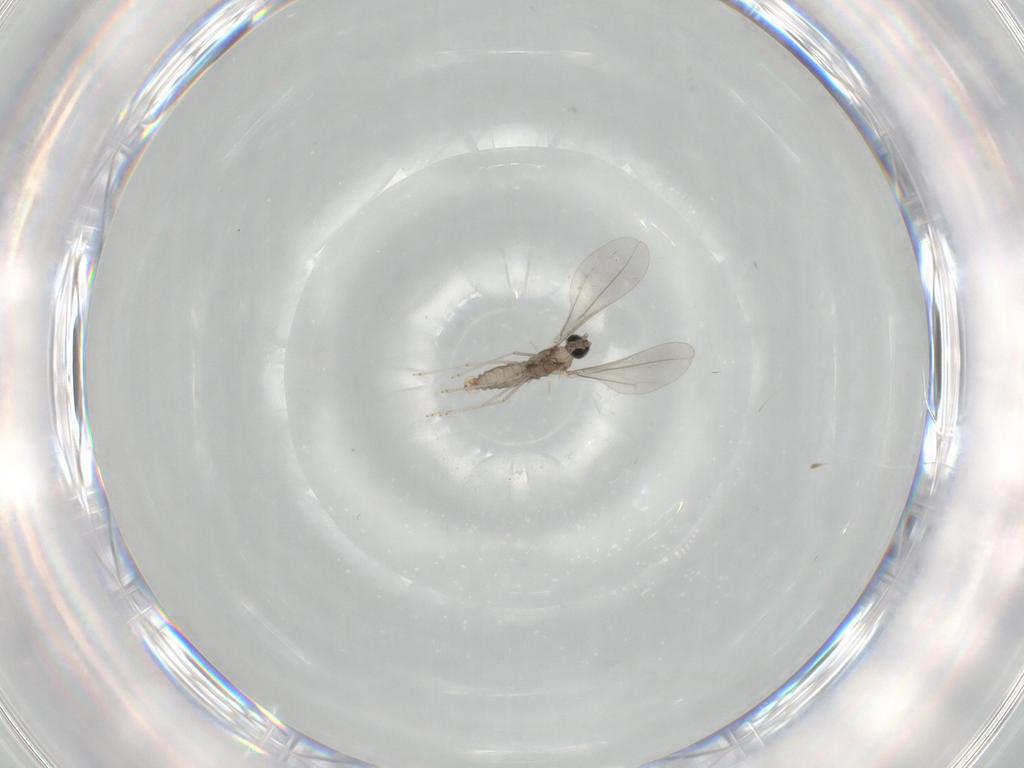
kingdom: Animalia
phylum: Arthropoda
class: Insecta
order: Diptera
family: Cecidomyiidae
